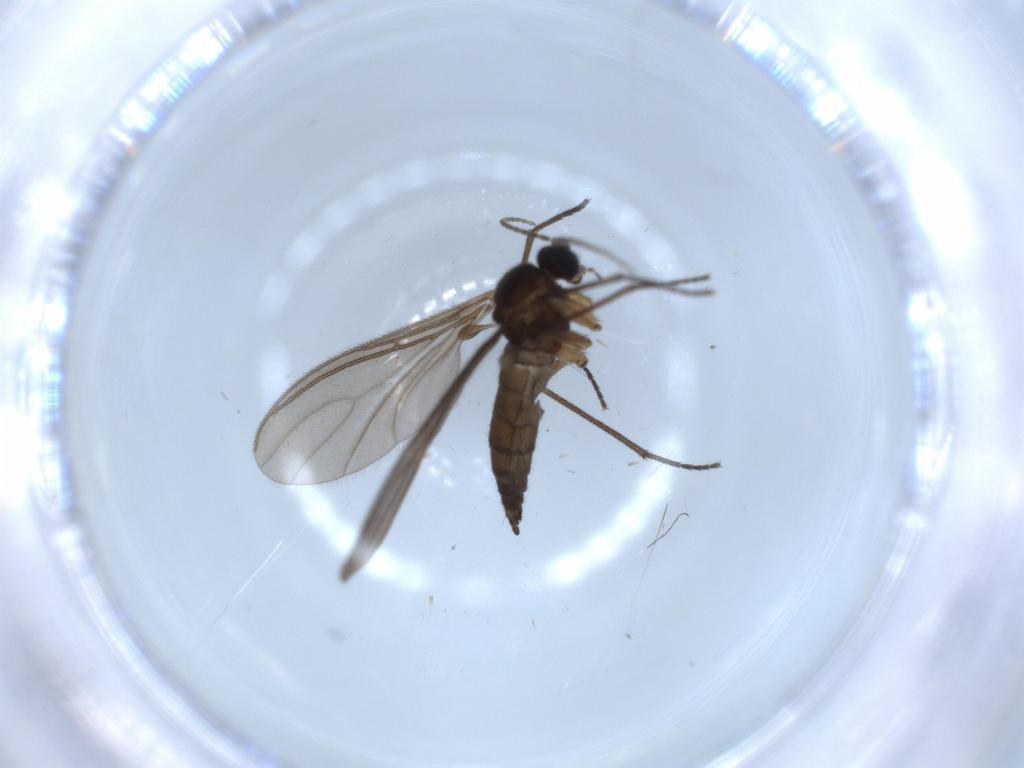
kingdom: Animalia
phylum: Arthropoda
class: Insecta
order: Diptera
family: Sciaridae
